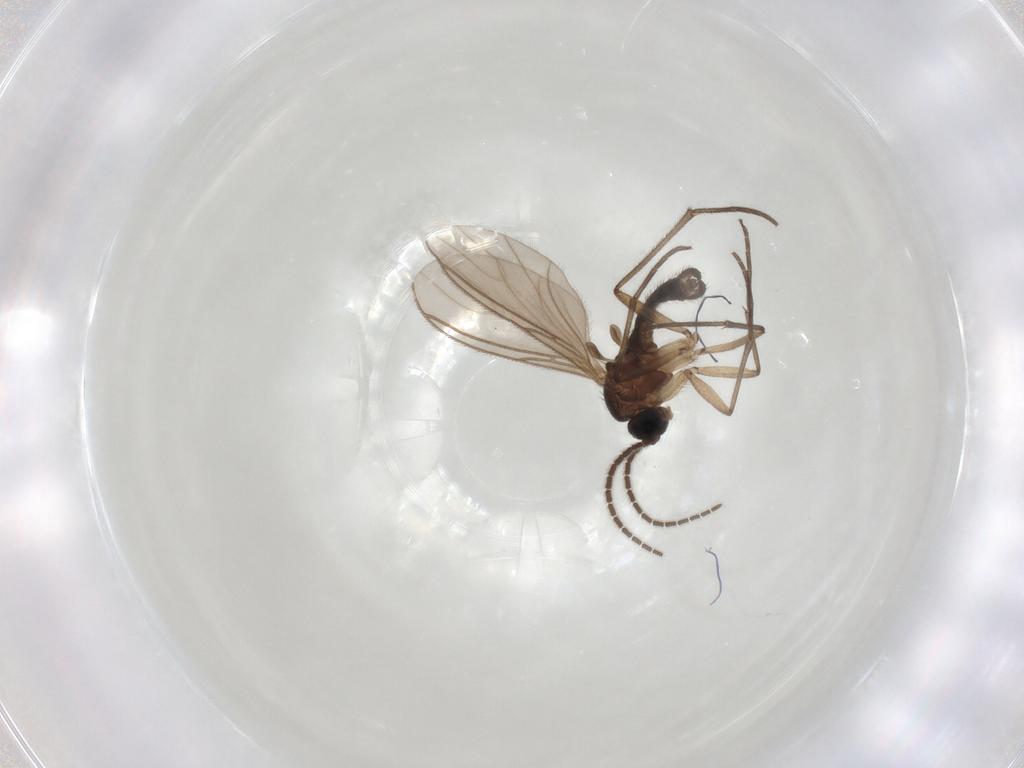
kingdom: Animalia
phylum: Arthropoda
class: Insecta
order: Diptera
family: Sciaridae
